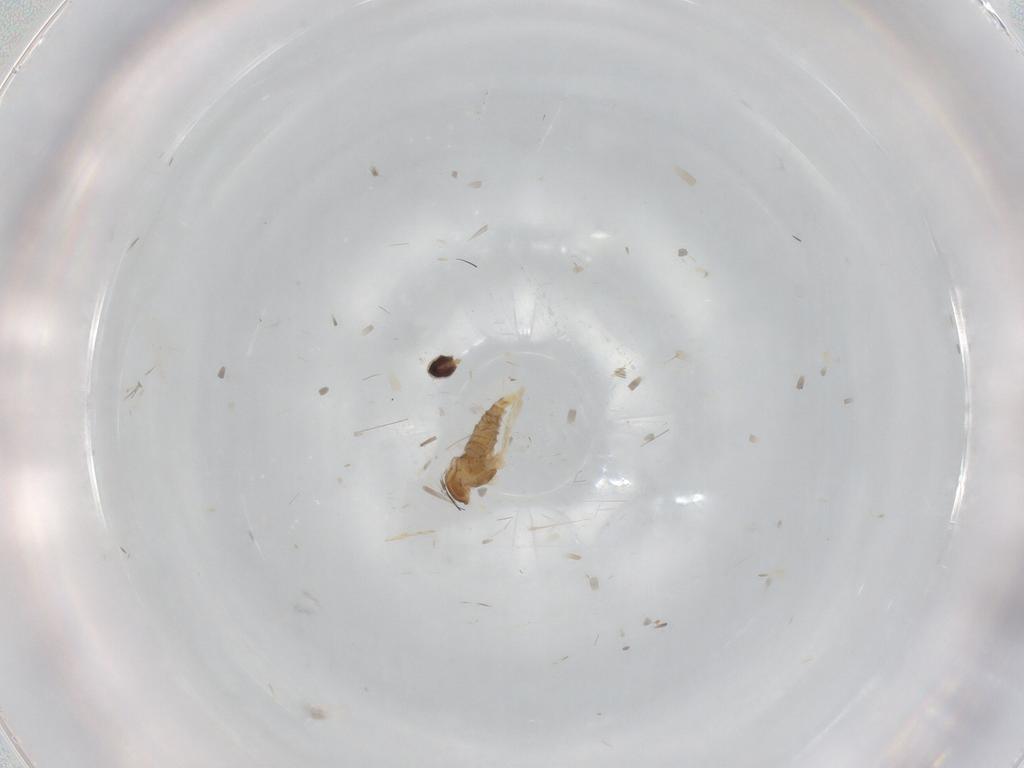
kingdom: Animalia
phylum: Arthropoda
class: Insecta
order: Diptera
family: Cecidomyiidae
